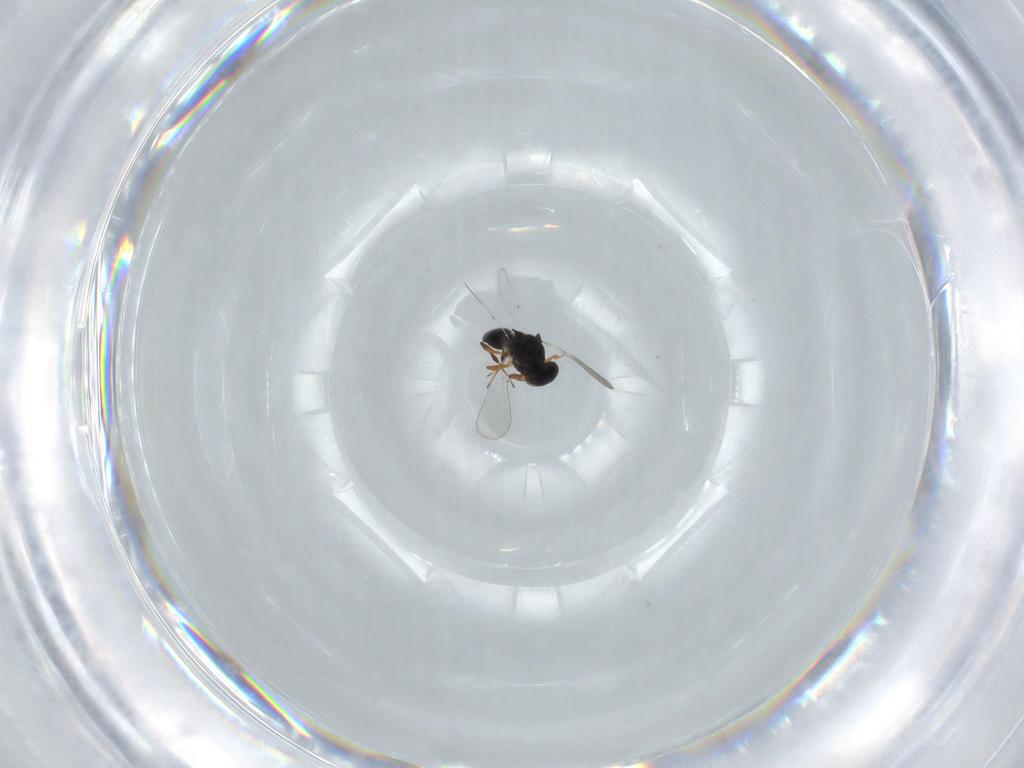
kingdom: Animalia
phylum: Arthropoda
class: Insecta
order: Hymenoptera
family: Platygastridae
